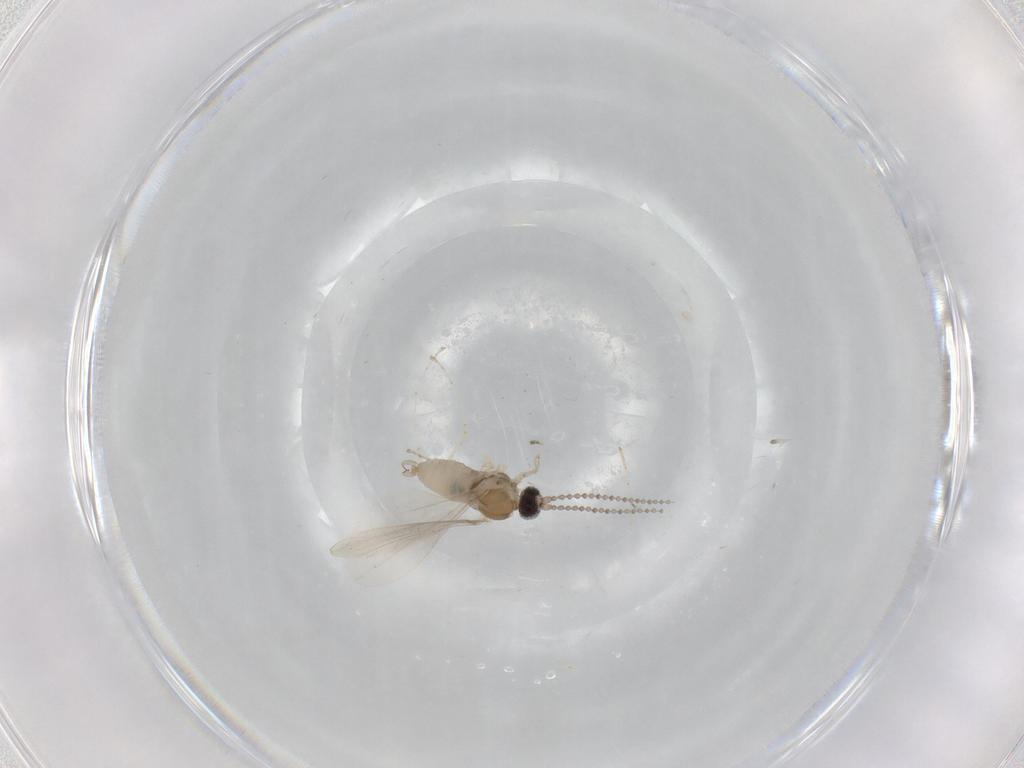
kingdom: Animalia
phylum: Arthropoda
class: Insecta
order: Diptera
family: Cecidomyiidae
